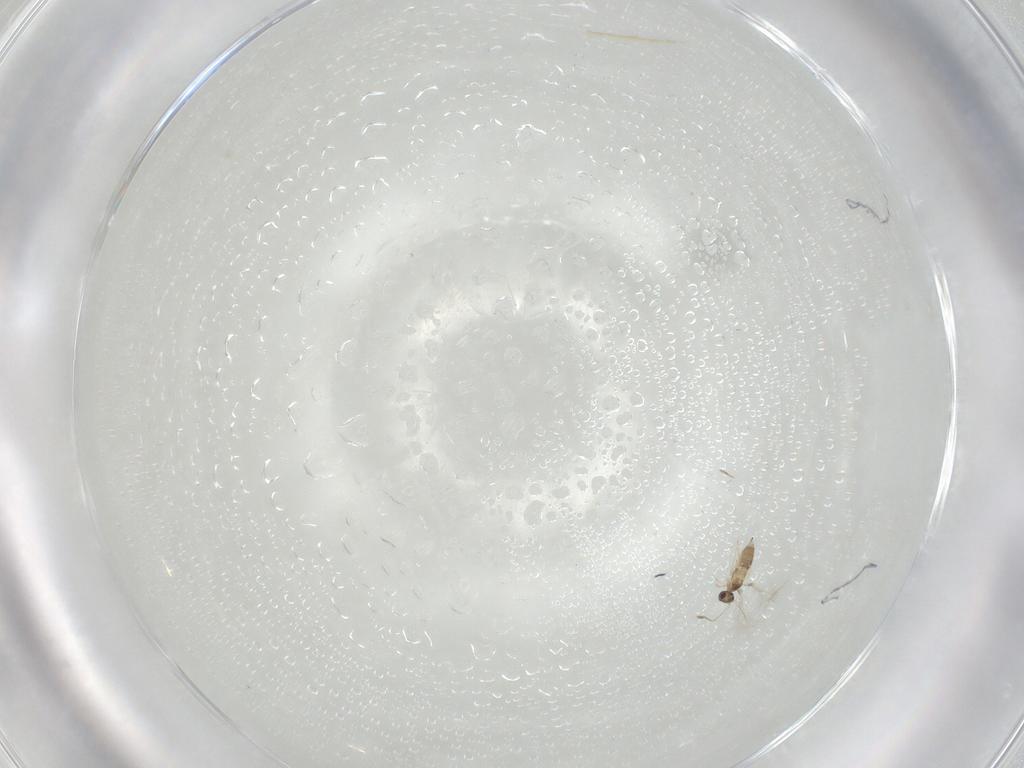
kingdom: Animalia
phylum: Arthropoda
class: Insecta
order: Hymenoptera
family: Mymaridae
